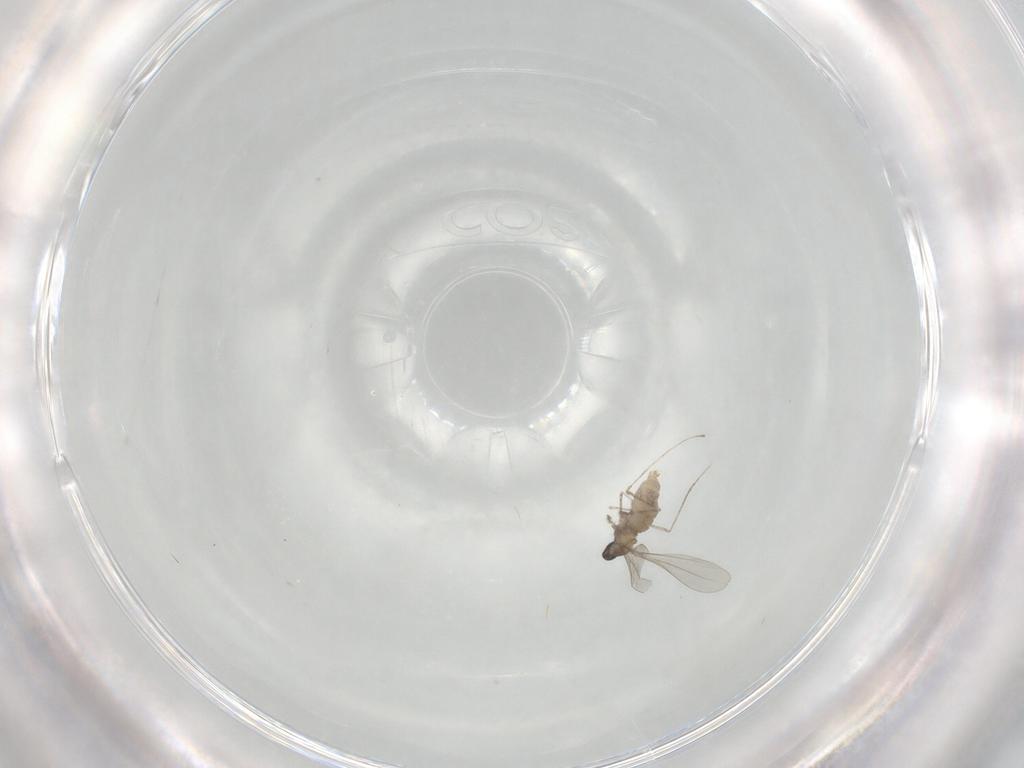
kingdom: Animalia
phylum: Arthropoda
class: Insecta
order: Diptera
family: Cecidomyiidae
